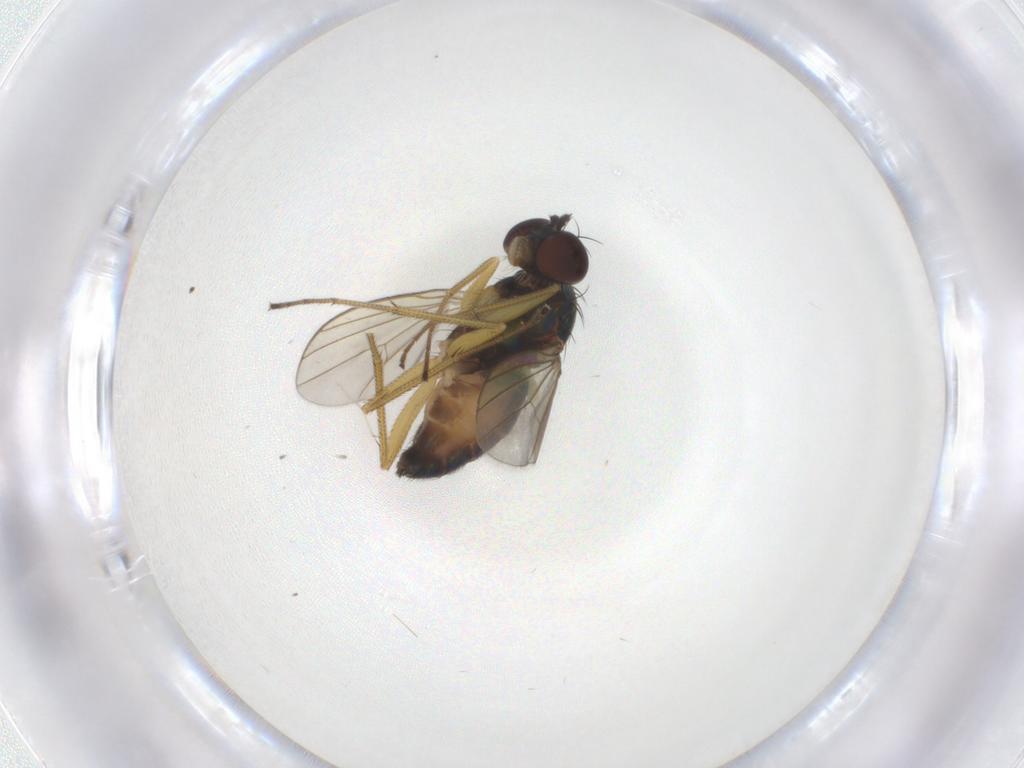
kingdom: Animalia
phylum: Arthropoda
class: Insecta
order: Diptera
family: Dolichopodidae
